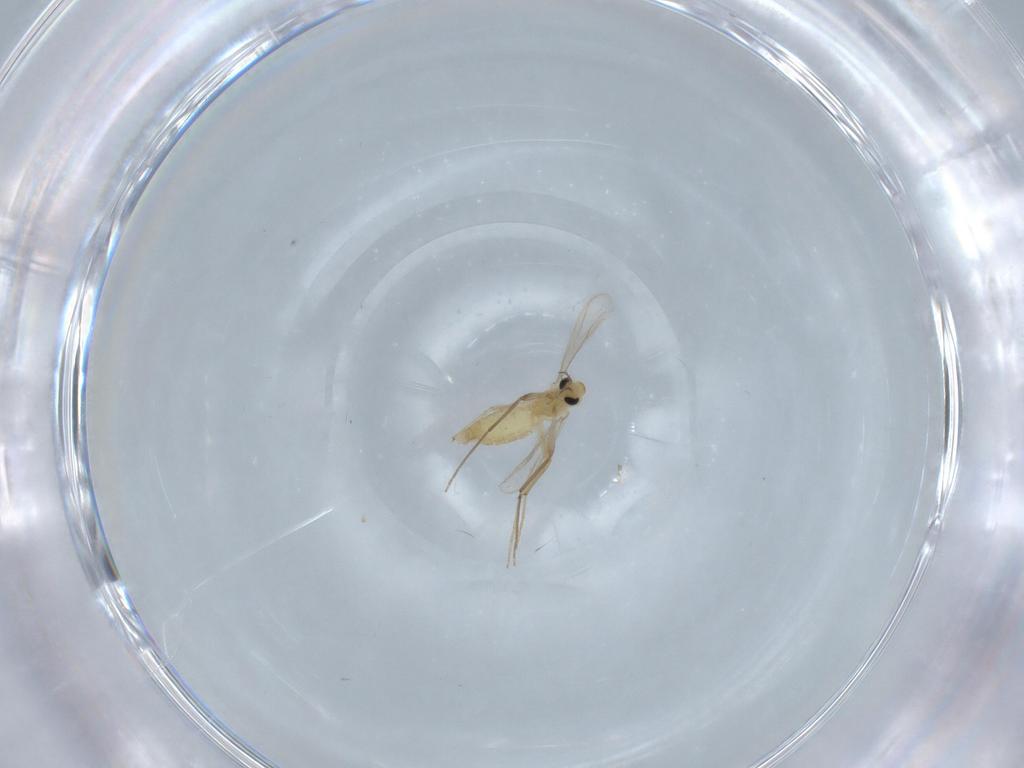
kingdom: Animalia
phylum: Arthropoda
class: Insecta
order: Diptera
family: Chironomidae
